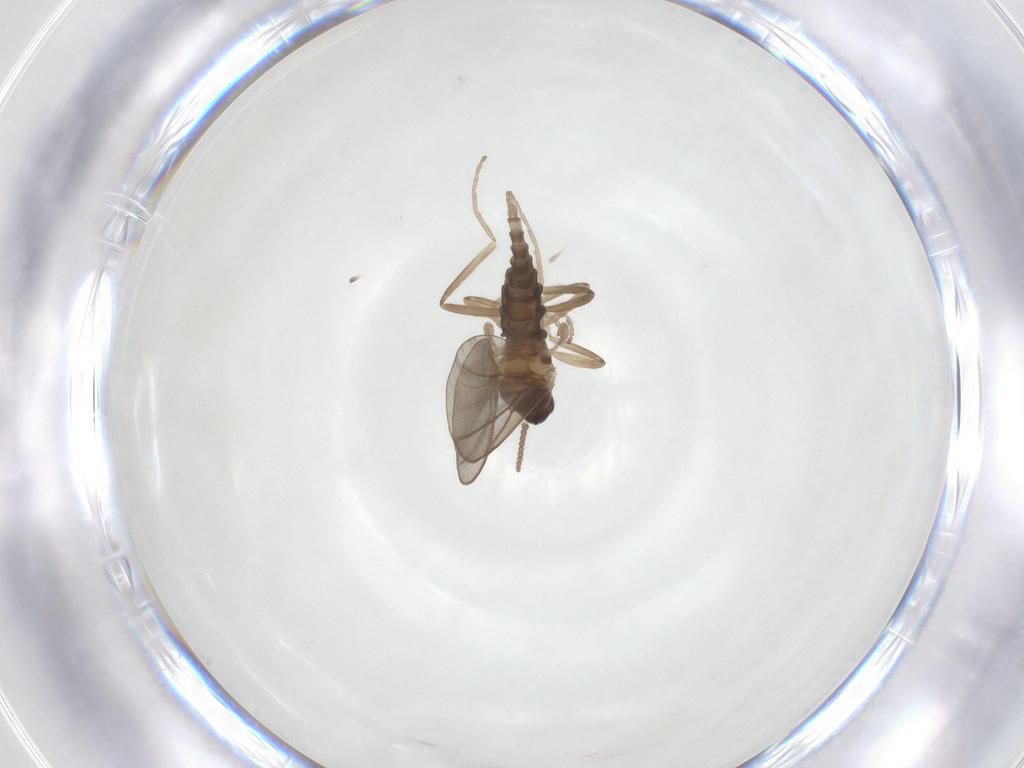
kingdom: Animalia
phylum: Arthropoda
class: Insecta
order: Diptera
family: Cecidomyiidae
